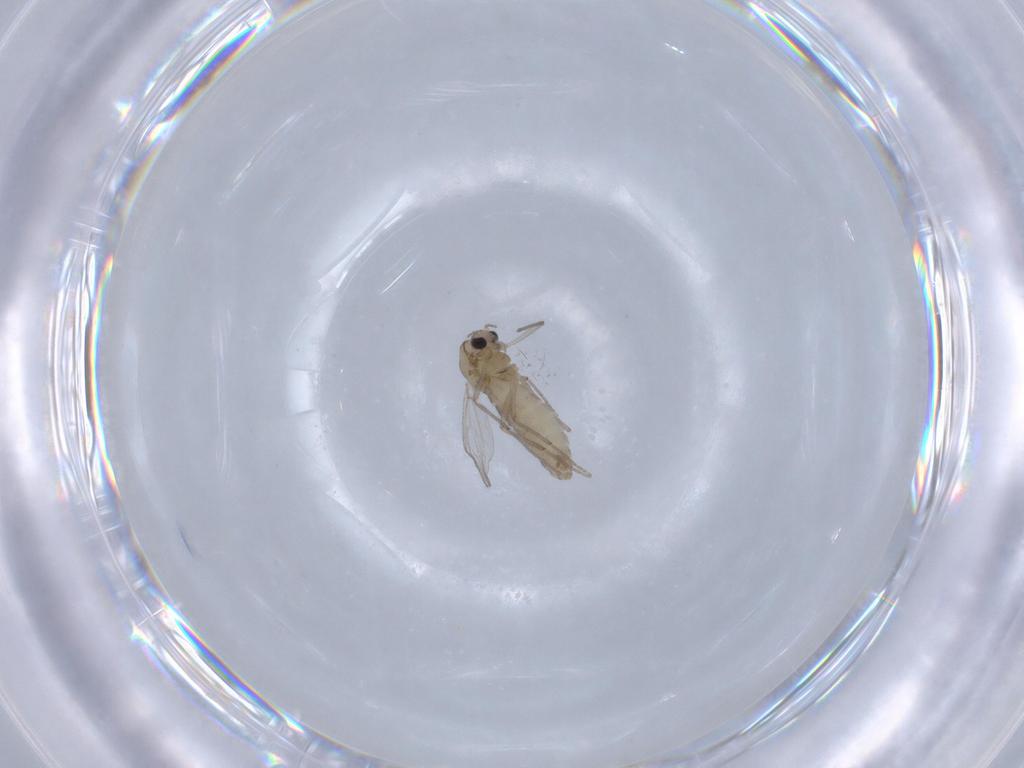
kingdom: Animalia
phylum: Arthropoda
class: Insecta
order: Diptera
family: Chironomidae
